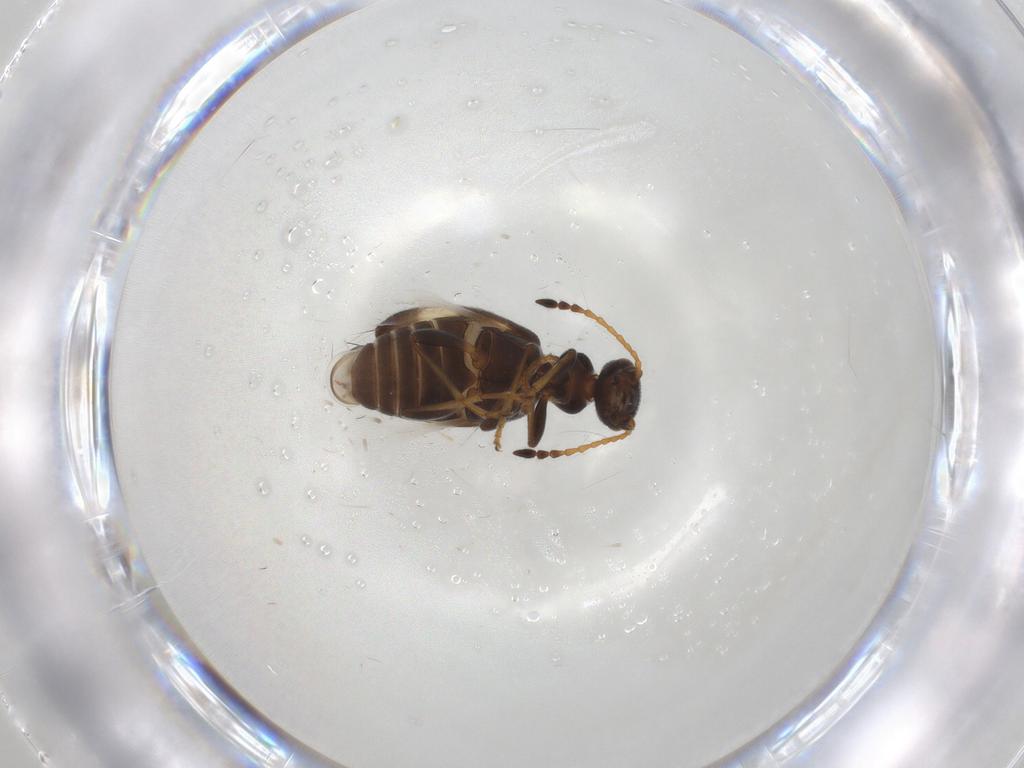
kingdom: Animalia
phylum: Arthropoda
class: Insecta
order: Coleoptera
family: Anthicidae
